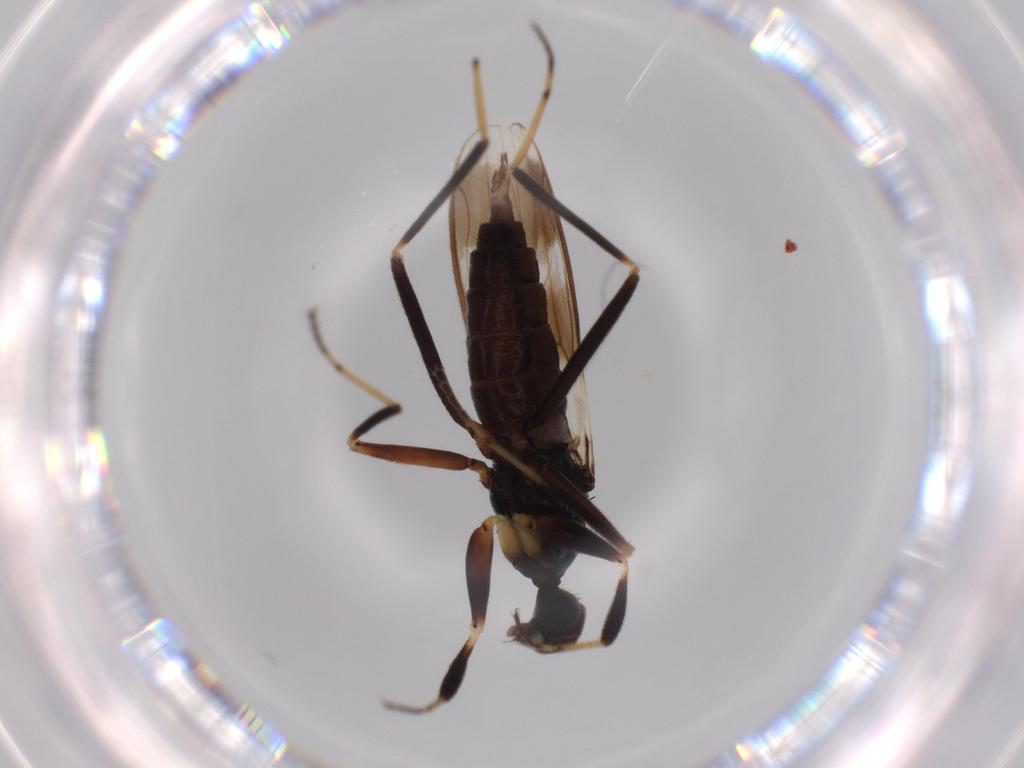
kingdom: Animalia
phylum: Arthropoda
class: Insecta
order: Diptera
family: Hybotidae
